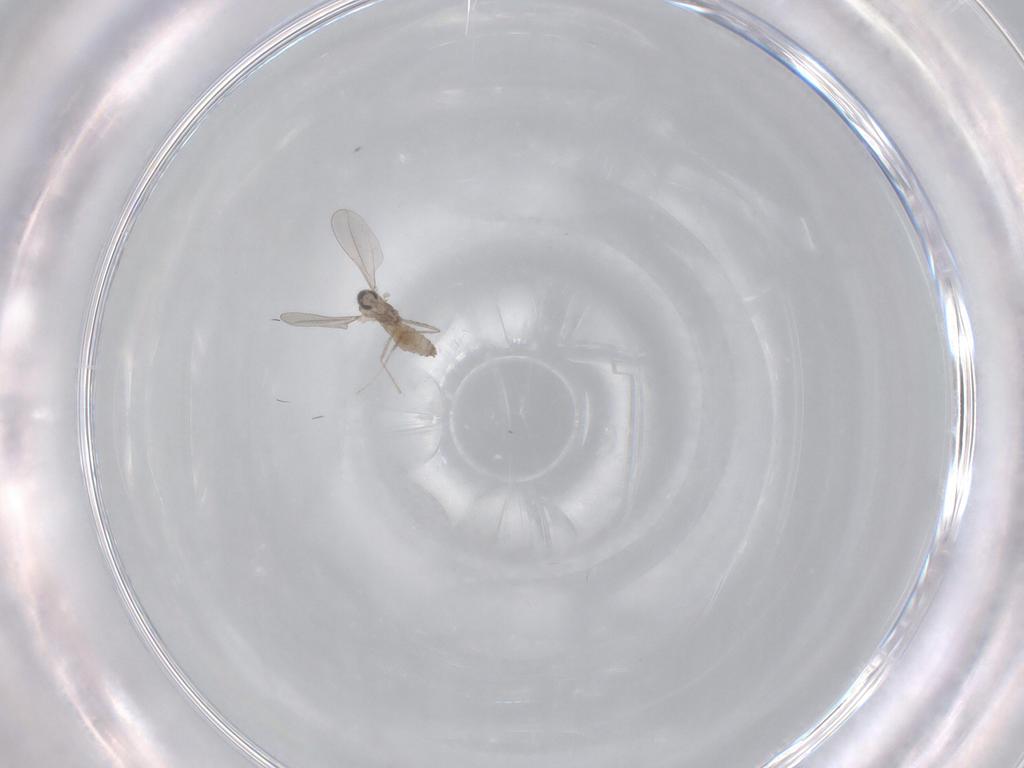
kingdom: Animalia
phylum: Arthropoda
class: Insecta
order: Diptera
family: Cecidomyiidae
